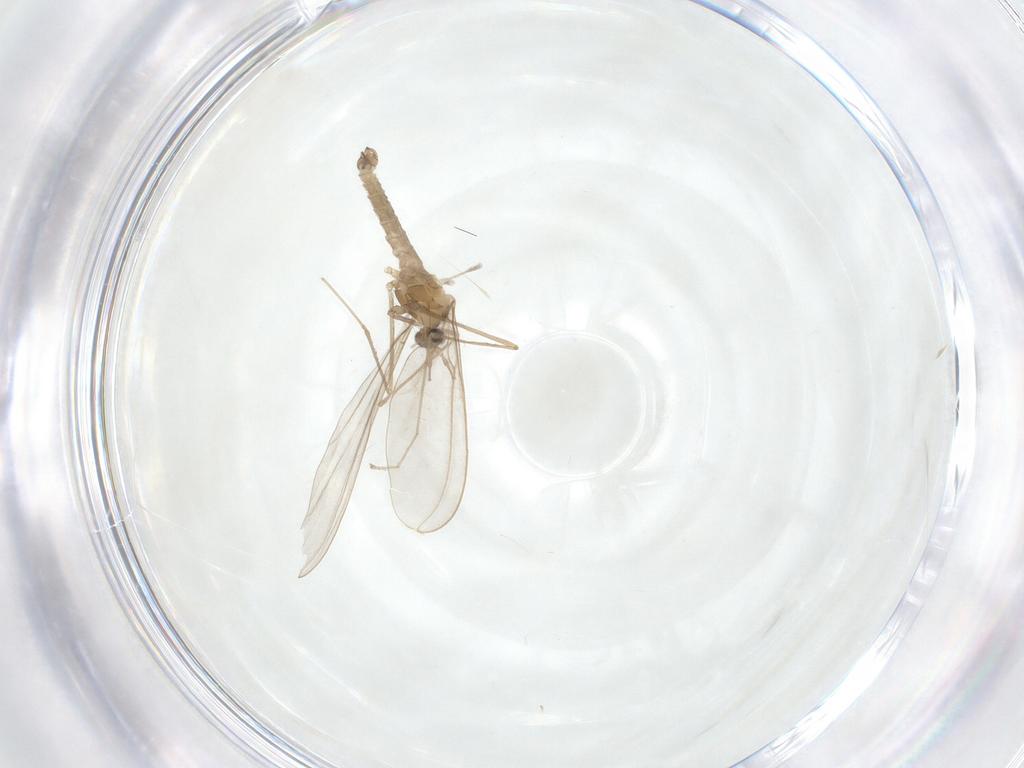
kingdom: Animalia
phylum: Arthropoda
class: Insecta
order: Diptera
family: Cecidomyiidae
